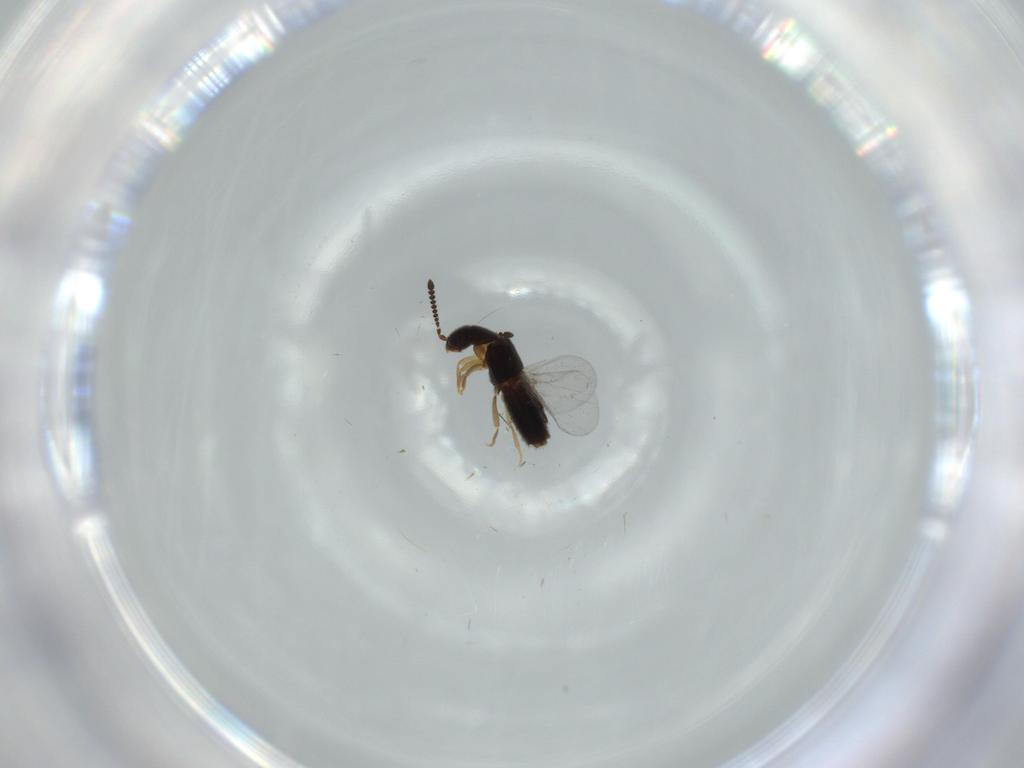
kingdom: Animalia
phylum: Arthropoda
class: Insecta
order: Coleoptera
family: Staphylinidae
